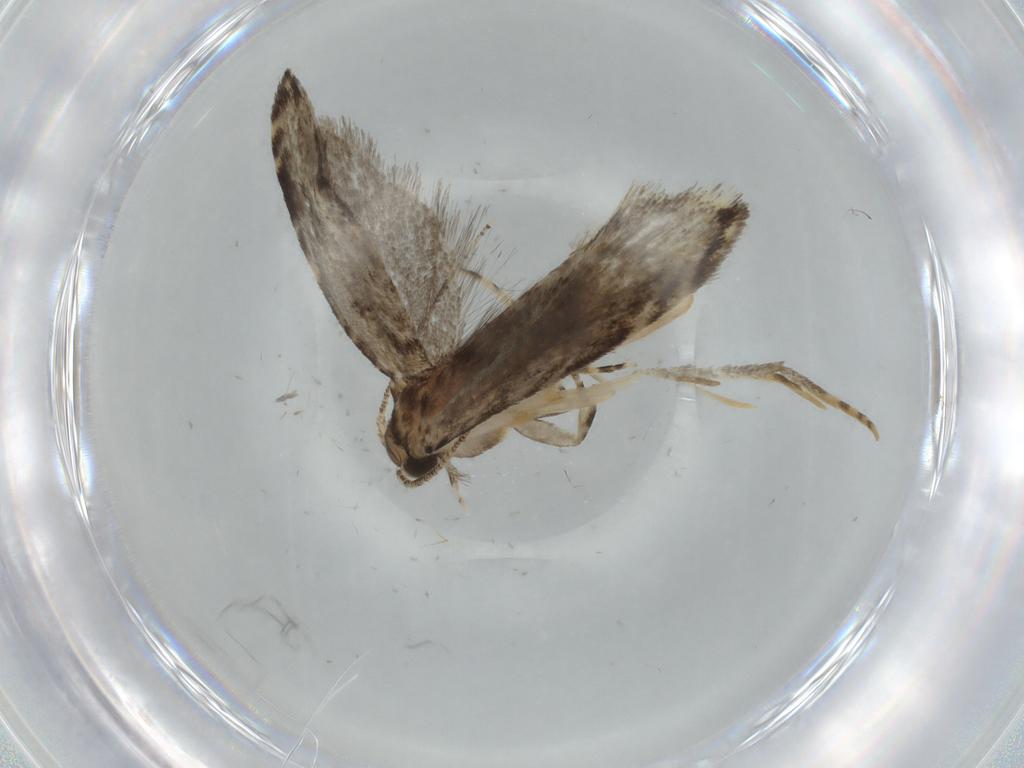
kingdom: Animalia
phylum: Arthropoda
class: Insecta
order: Lepidoptera
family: Tineidae
